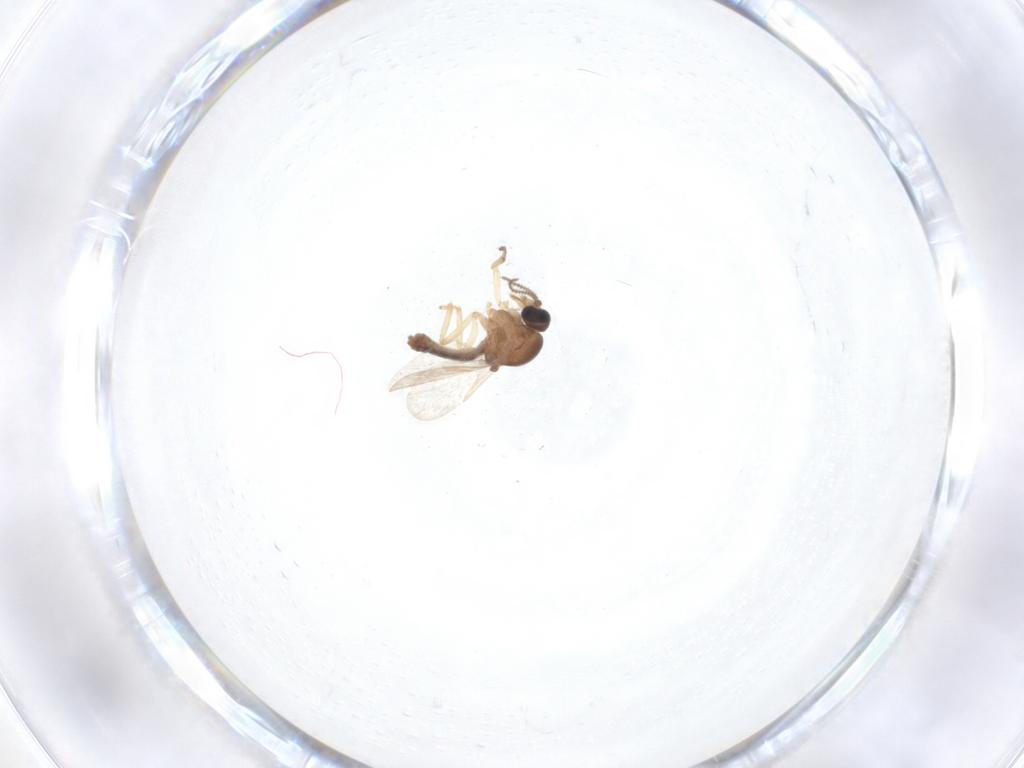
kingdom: Animalia
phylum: Arthropoda
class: Insecta
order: Diptera
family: Ceratopogonidae
